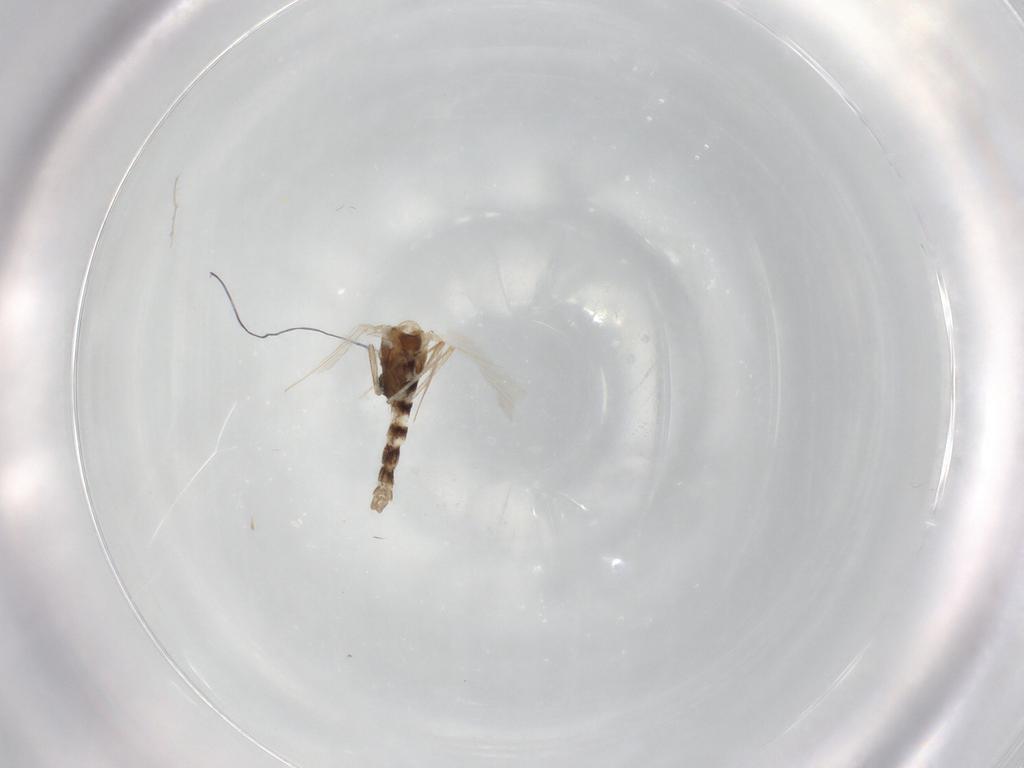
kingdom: Animalia
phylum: Arthropoda
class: Insecta
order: Diptera
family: Chironomidae
